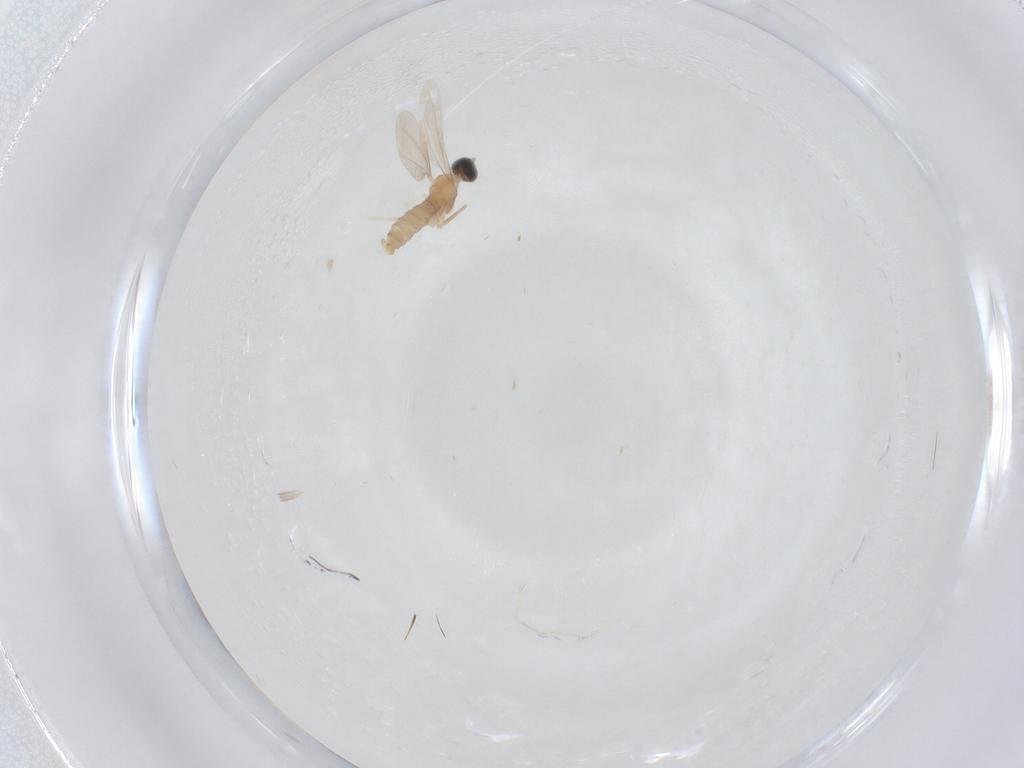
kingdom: Animalia
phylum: Arthropoda
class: Insecta
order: Diptera
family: Cecidomyiidae
